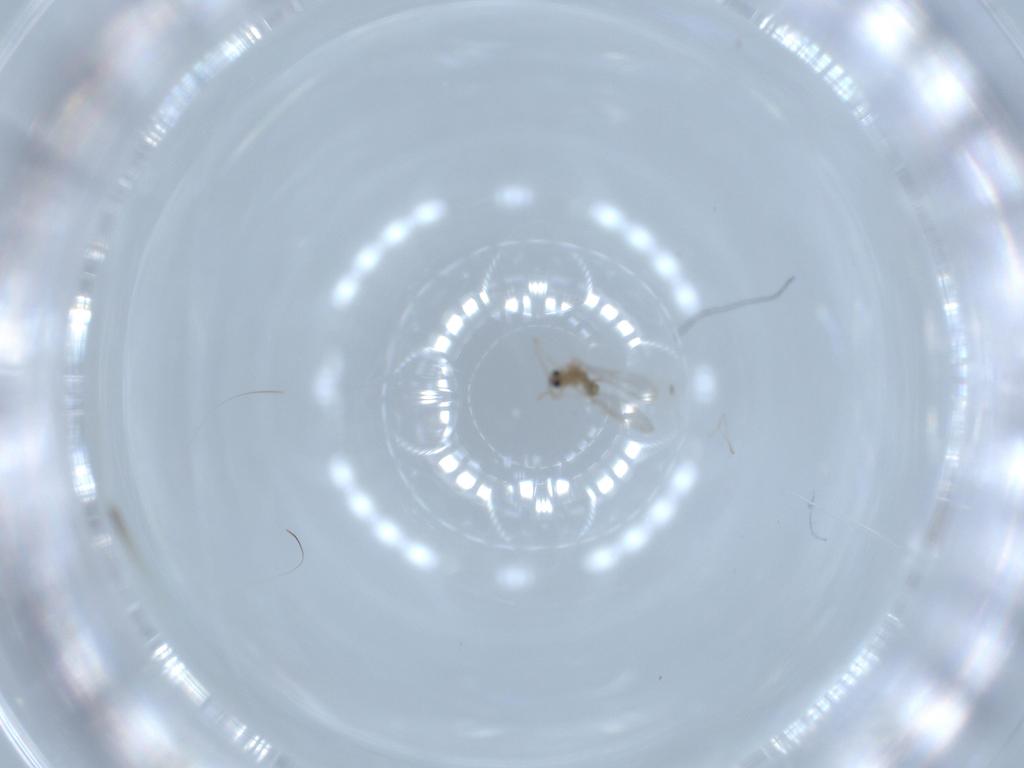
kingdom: Animalia
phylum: Arthropoda
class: Insecta
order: Diptera
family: Cecidomyiidae
